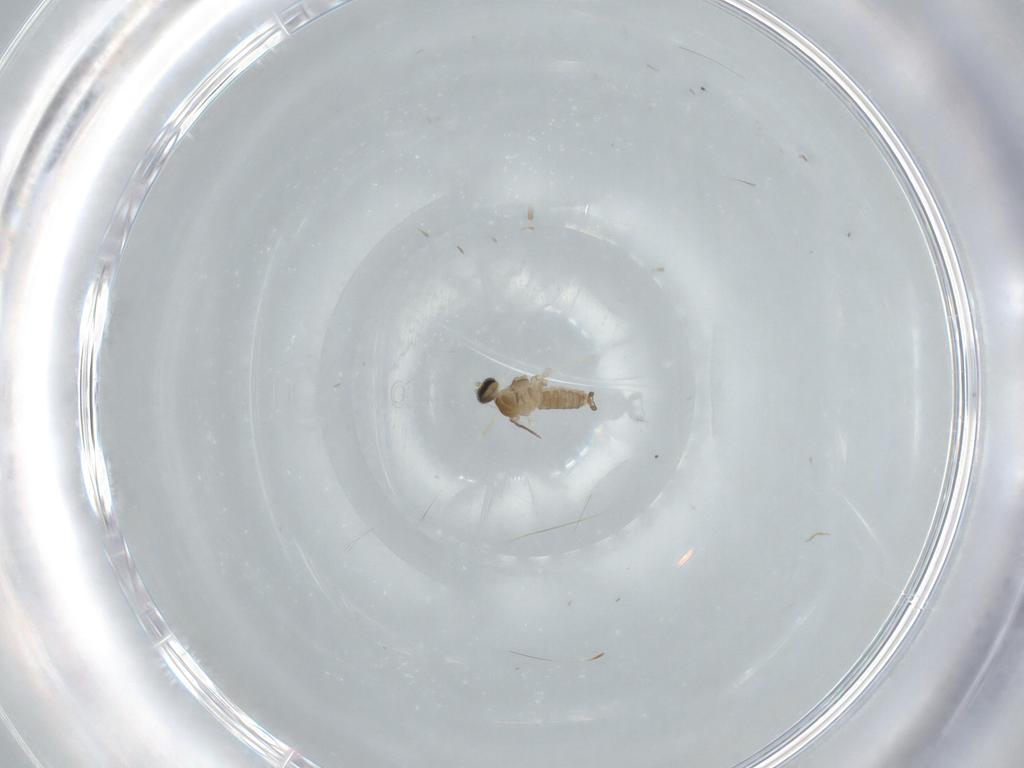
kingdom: Animalia
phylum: Arthropoda
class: Insecta
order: Diptera
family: Cecidomyiidae
